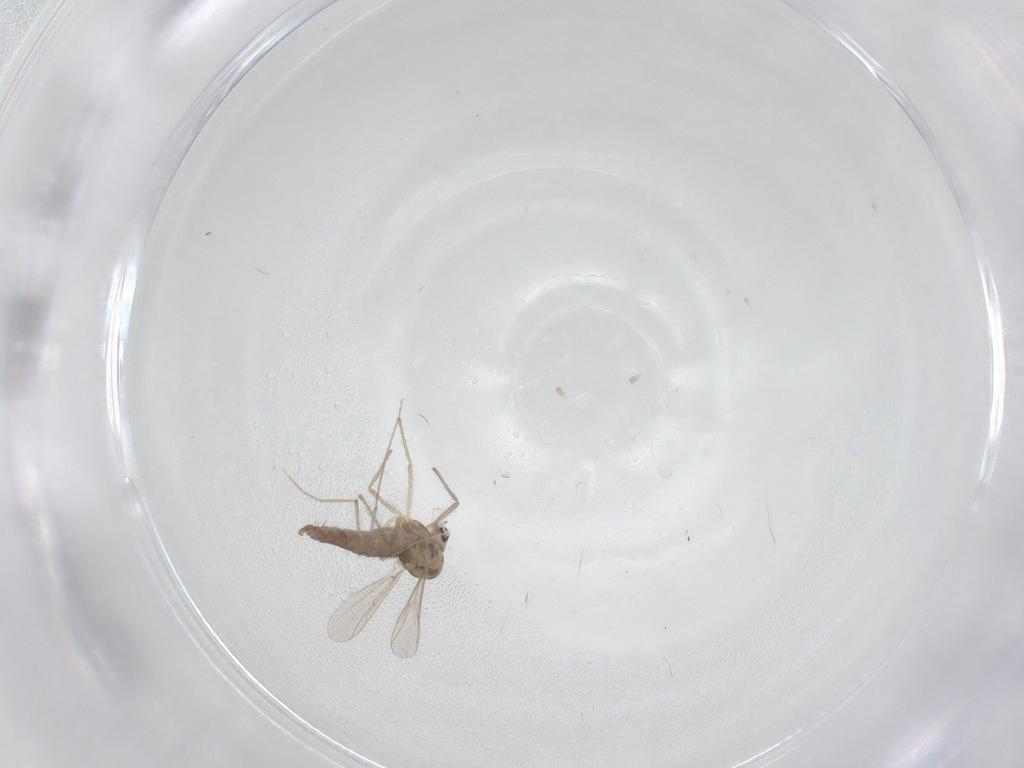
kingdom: Animalia
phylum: Arthropoda
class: Insecta
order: Diptera
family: Chironomidae
